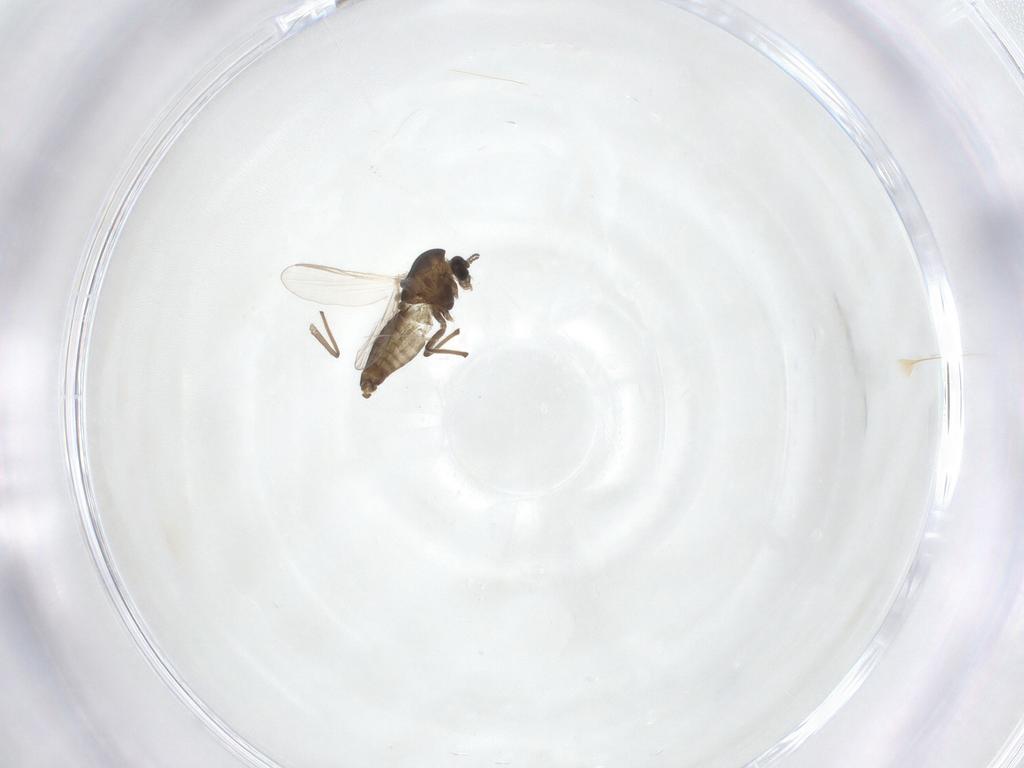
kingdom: Animalia
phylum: Arthropoda
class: Insecta
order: Diptera
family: Chironomidae
